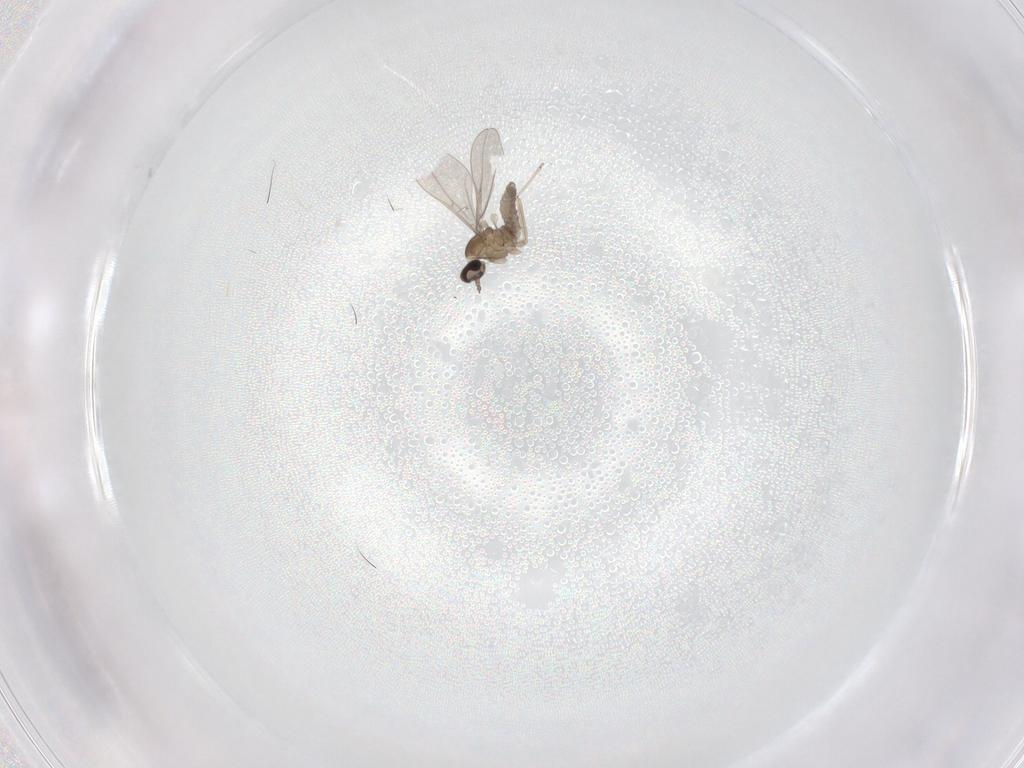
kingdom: Animalia
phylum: Arthropoda
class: Insecta
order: Diptera
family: Cecidomyiidae
